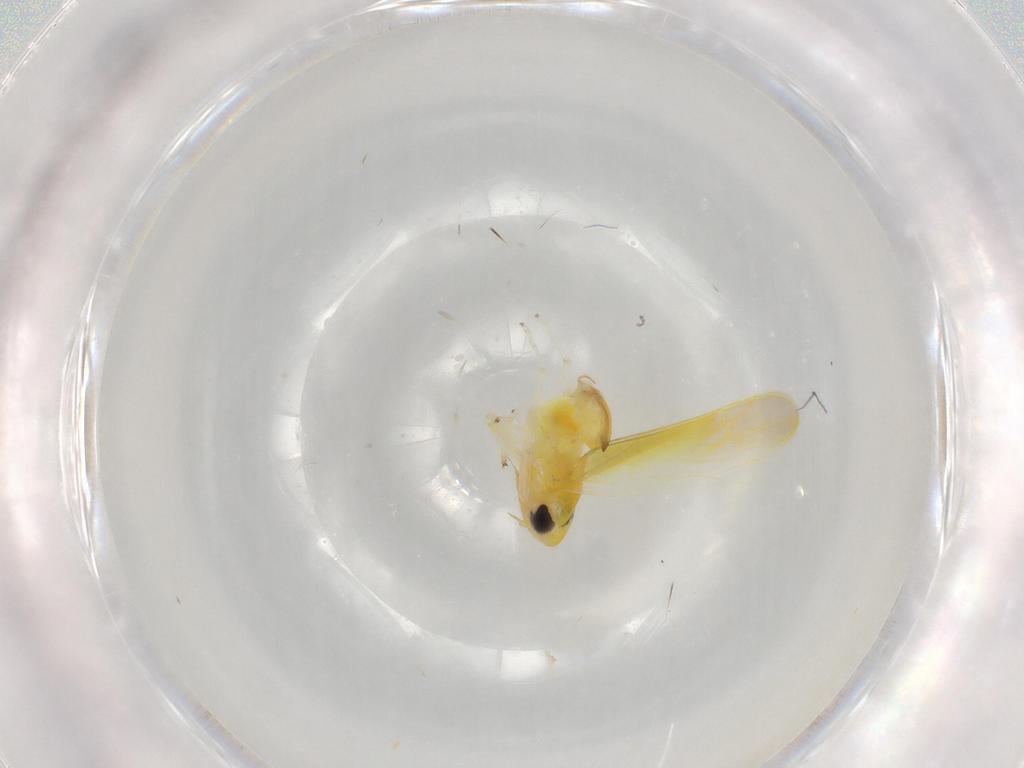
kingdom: Animalia
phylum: Arthropoda
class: Insecta
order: Hemiptera
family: Cicadellidae
